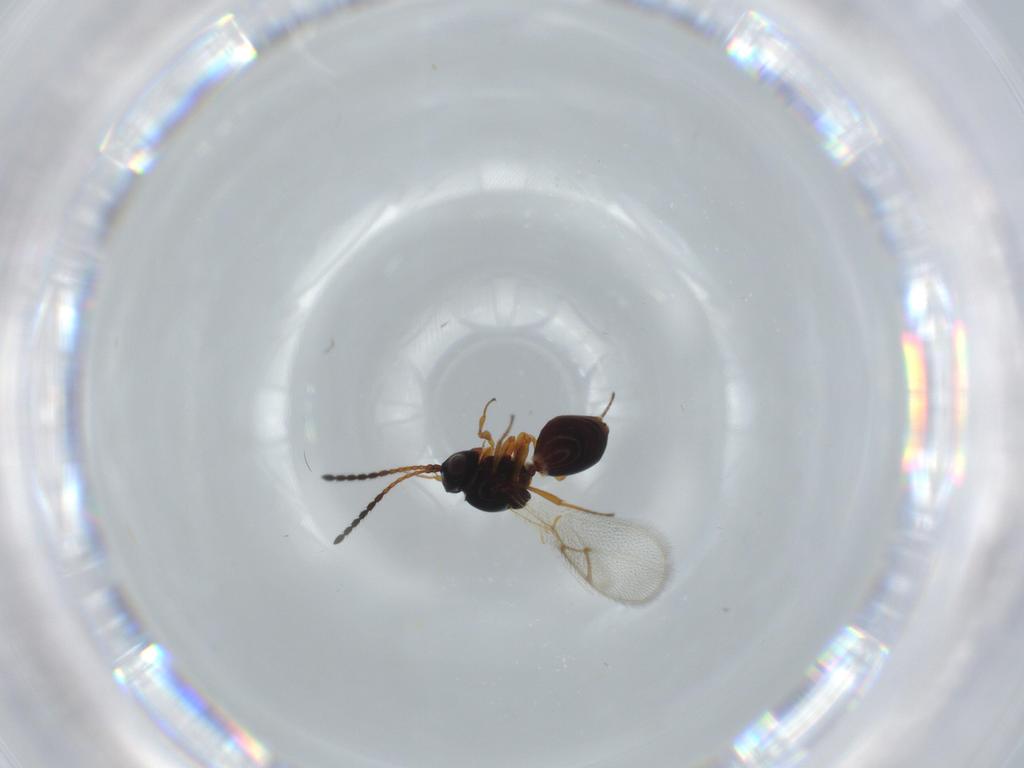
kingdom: Animalia
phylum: Arthropoda
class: Insecta
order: Hymenoptera
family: Figitidae
